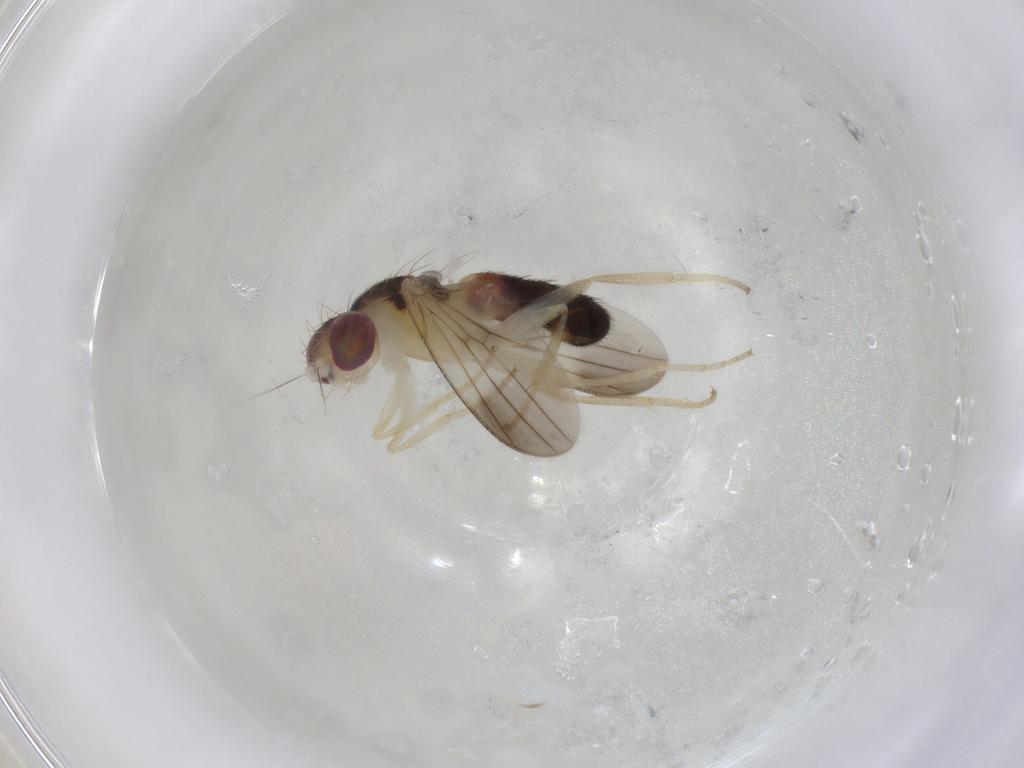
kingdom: Animalia
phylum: Arthropoda
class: Insecta
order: Diptera
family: Clusiidae
